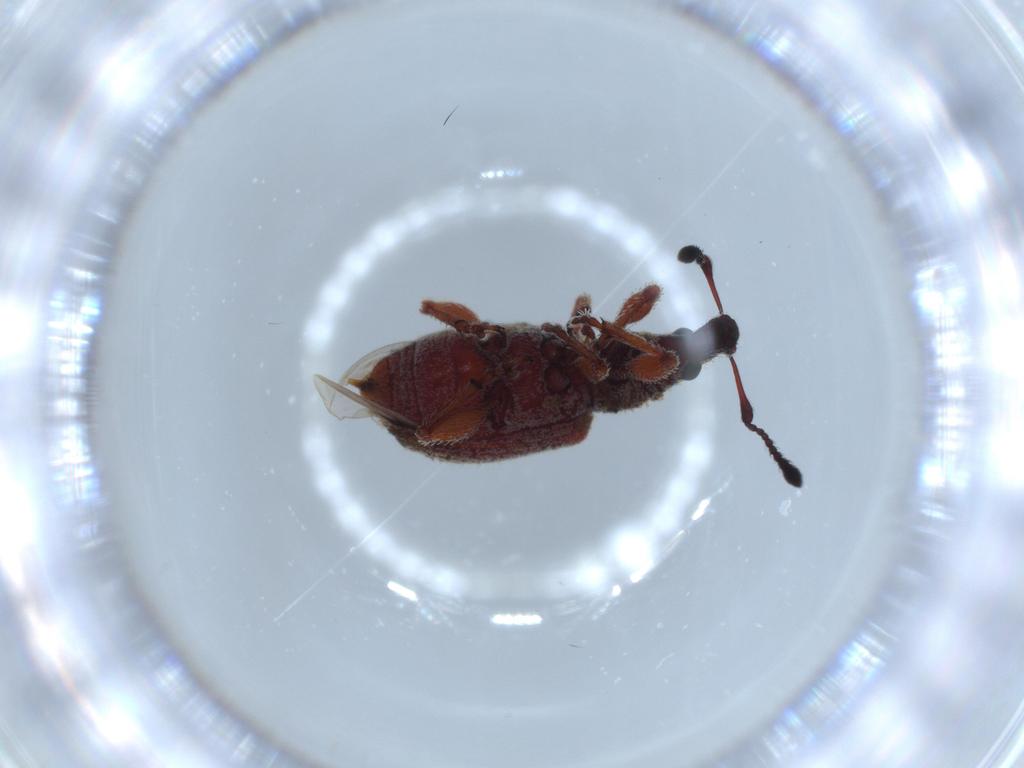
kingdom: Animalia
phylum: Arthropoda
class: Insecta
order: Coleoptera
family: Curculionidae
